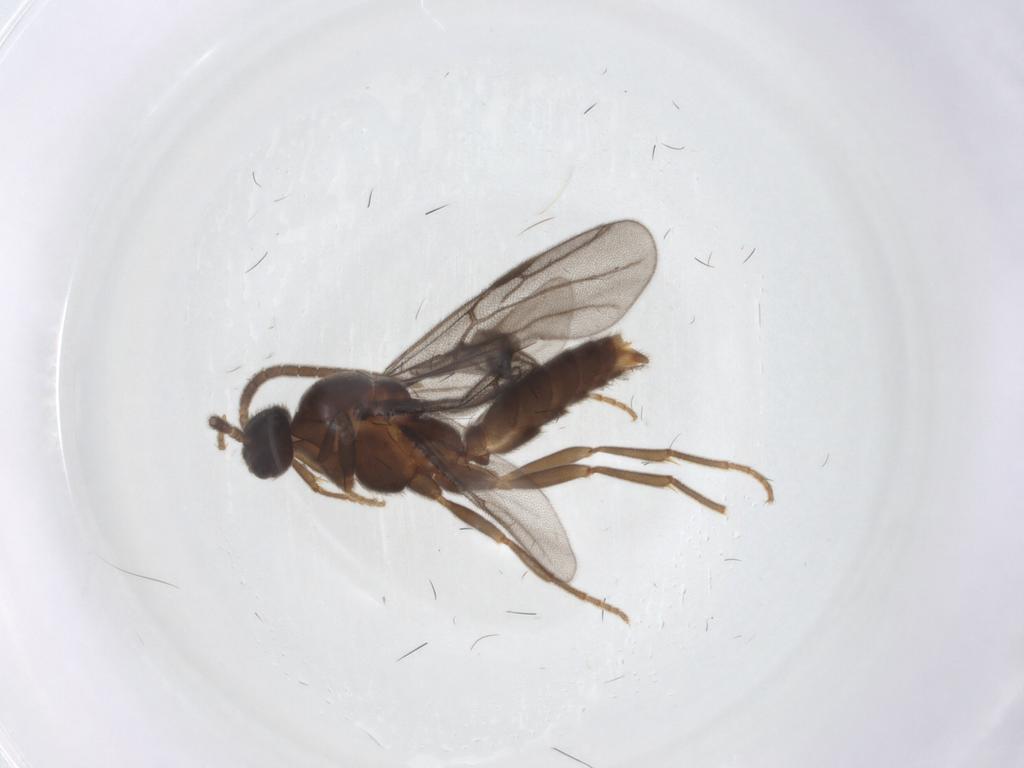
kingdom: Animalia
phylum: Arthropoda
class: Insecta
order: Hymenoptera
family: Formicidae
